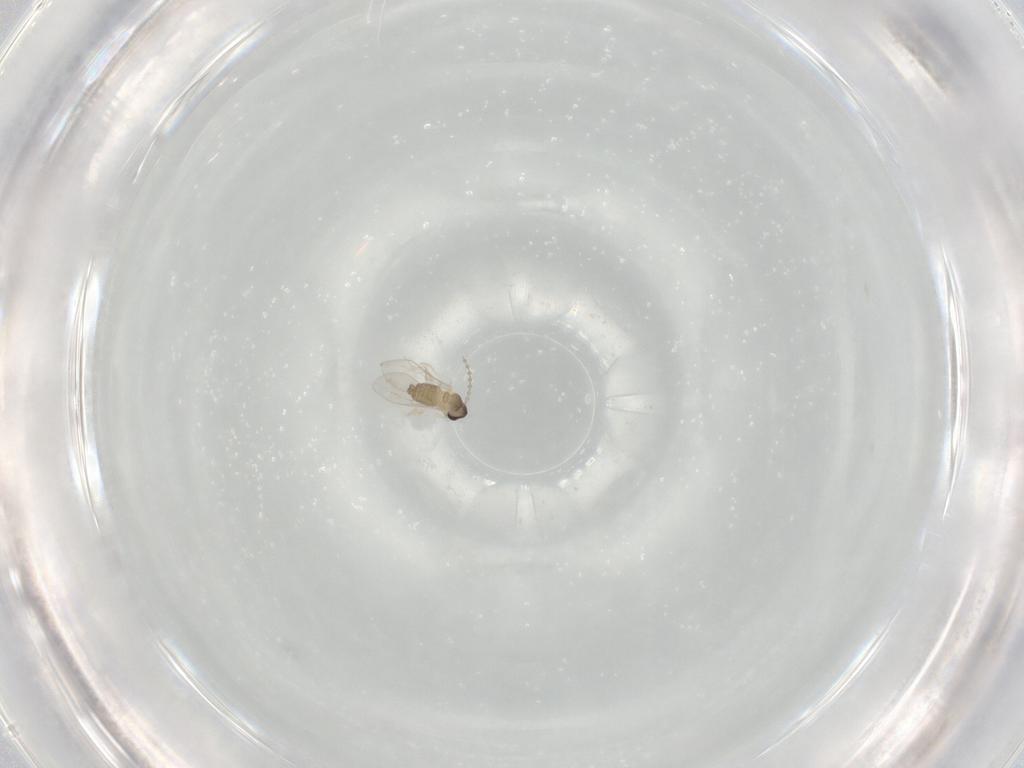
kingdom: Animalia
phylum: Arthropoda
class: Insecta
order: Diptera
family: Cecidomyiidae
